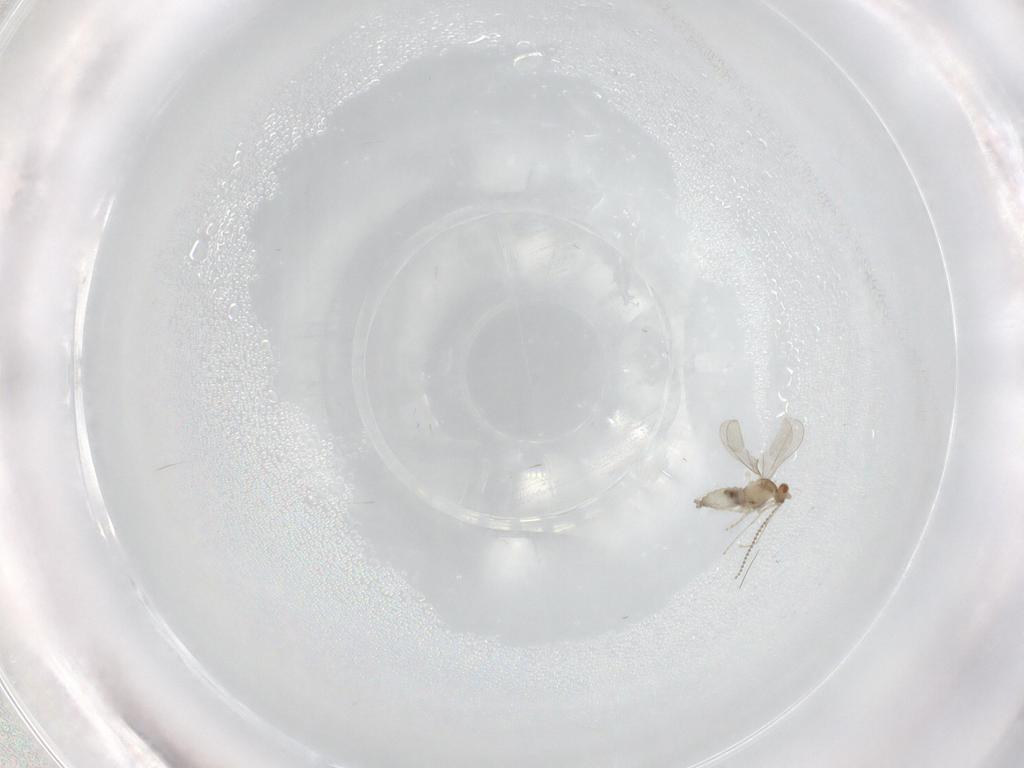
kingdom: Animalia
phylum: Arthropoda
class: Insecta
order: Diptera
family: Cecidomyiidae
